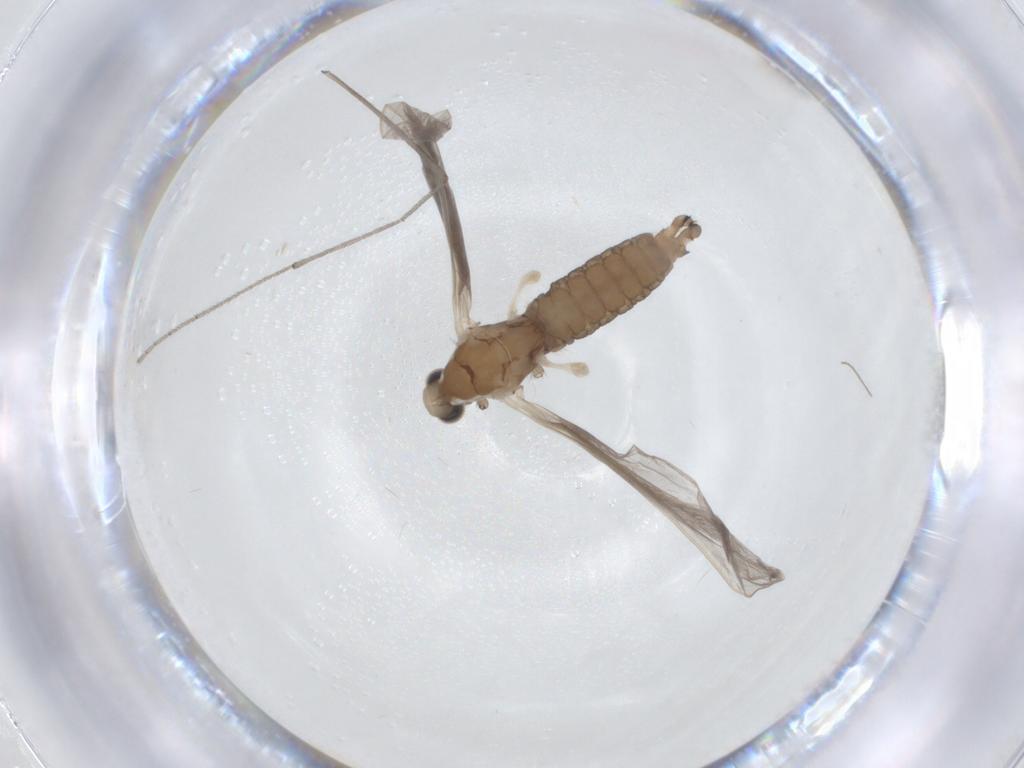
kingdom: Animalia
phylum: Arthropoda
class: Insecta
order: Diptera
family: Limoniidae
